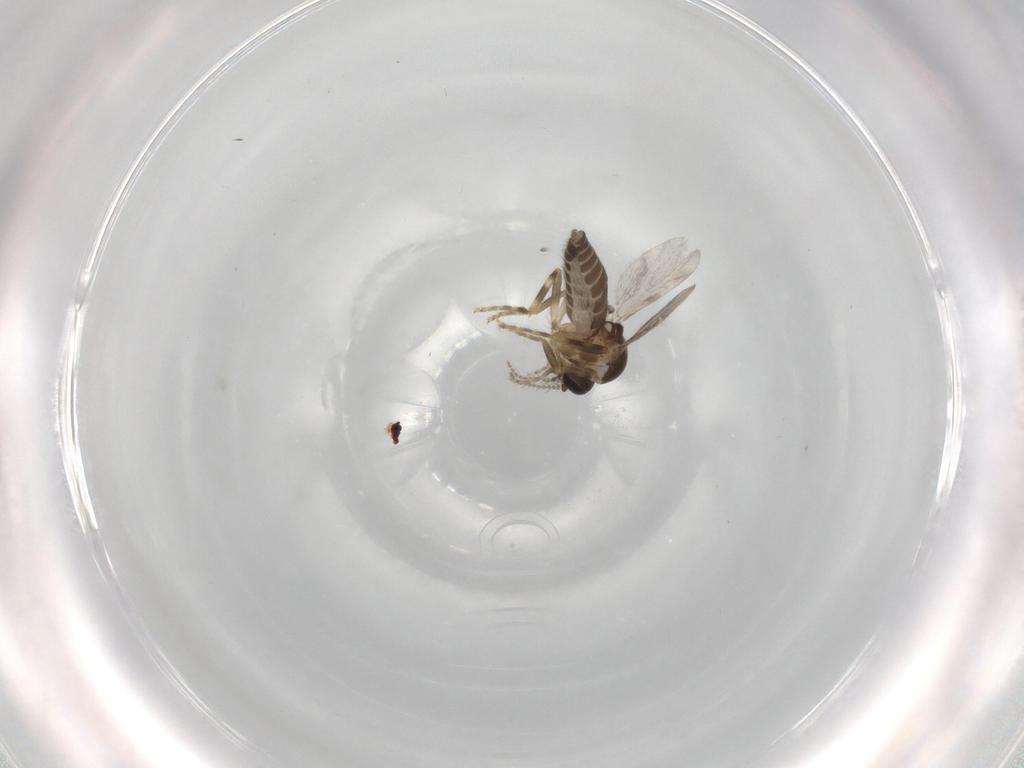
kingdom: Animalia
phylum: Arthropoda
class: Insecta
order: Diptera
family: Ceratopogonidae
